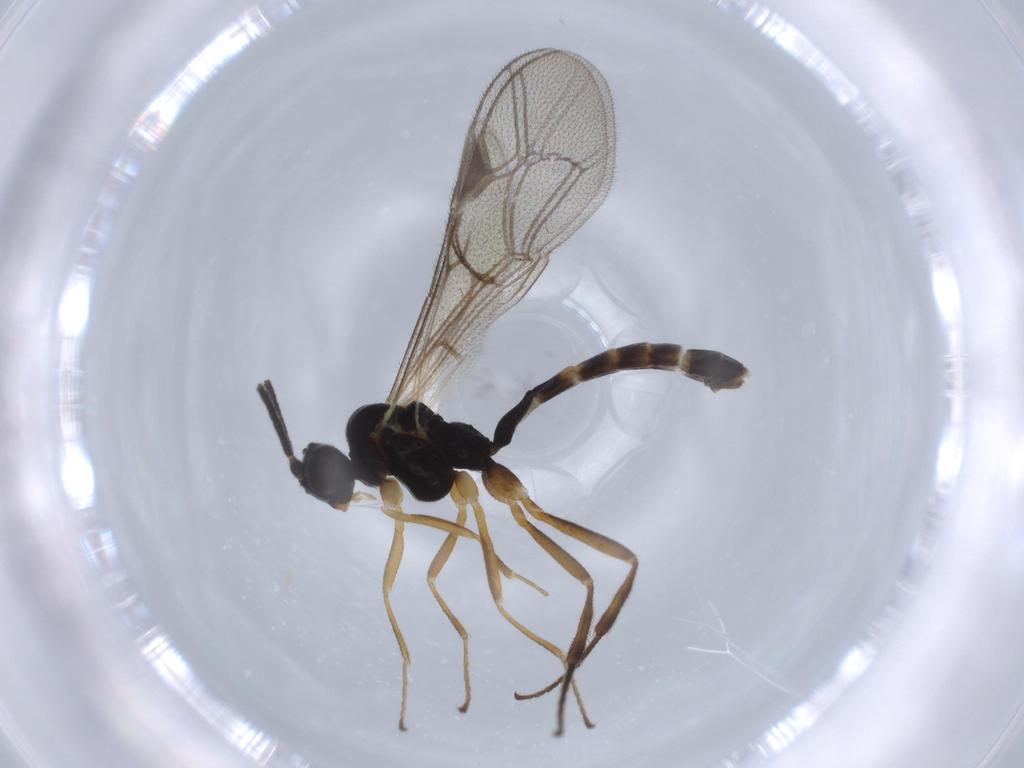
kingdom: Animalia
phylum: Arthropoda
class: Insecta
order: Hymenoptera
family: Ichneumonidae
